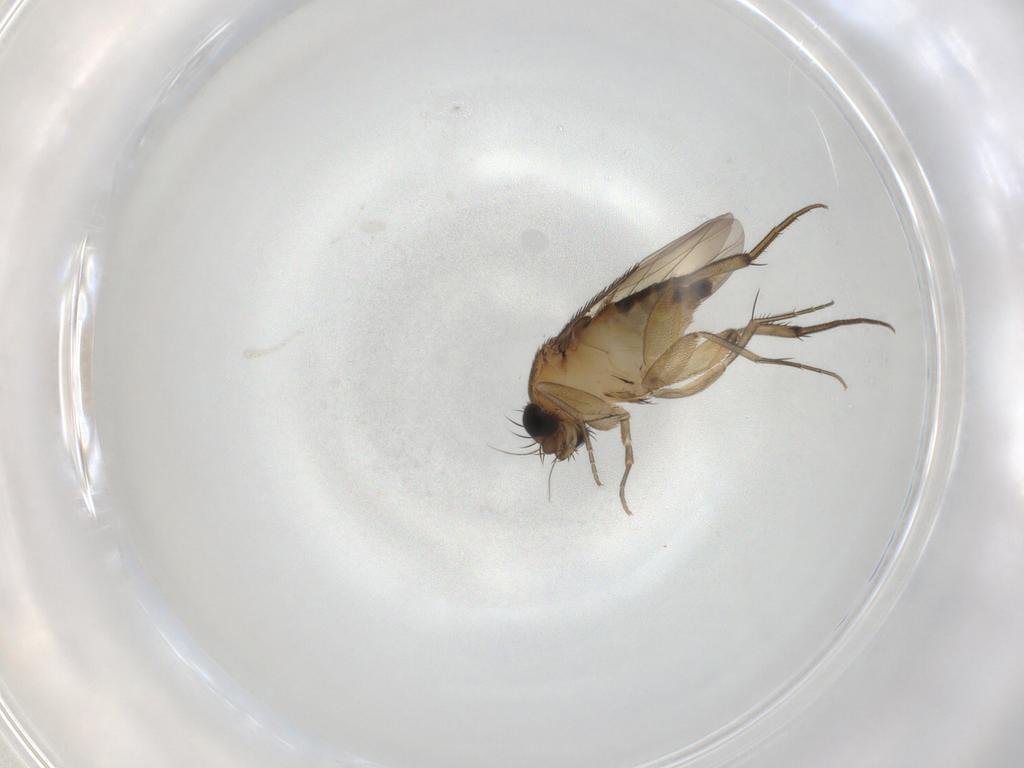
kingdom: Animalia
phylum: Arthropoda
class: Insecta
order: Diptera
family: Phoridae
